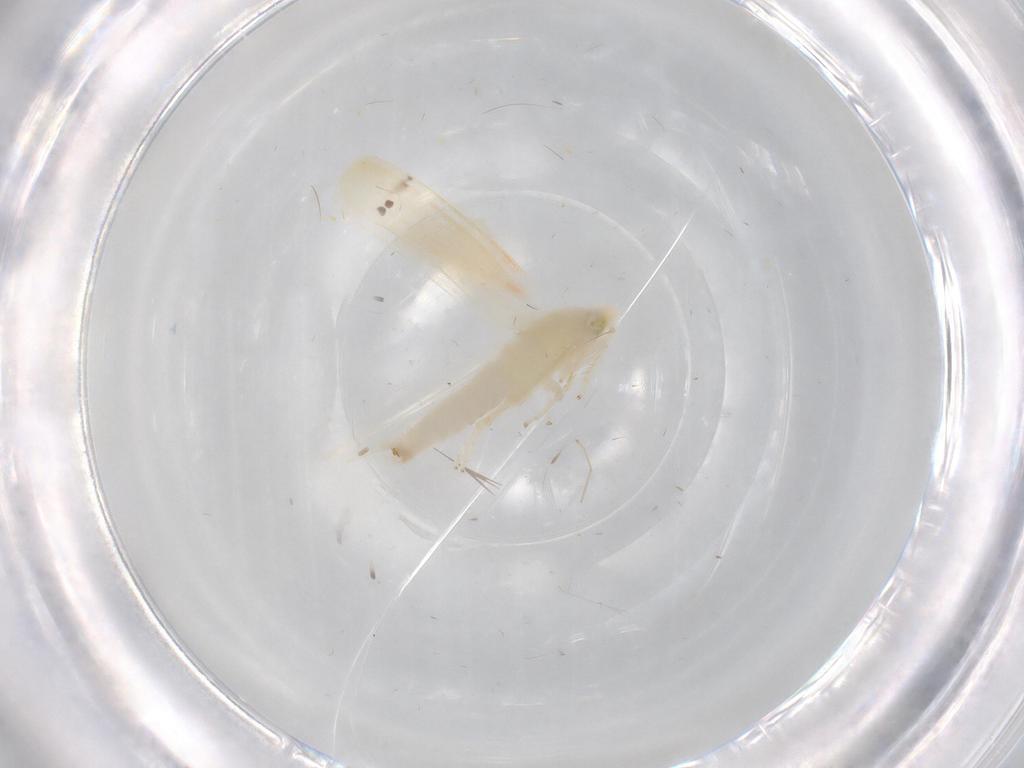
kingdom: Animalia
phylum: Arthropoda
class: Insecta
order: Hemiptera
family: Cicadellidae
